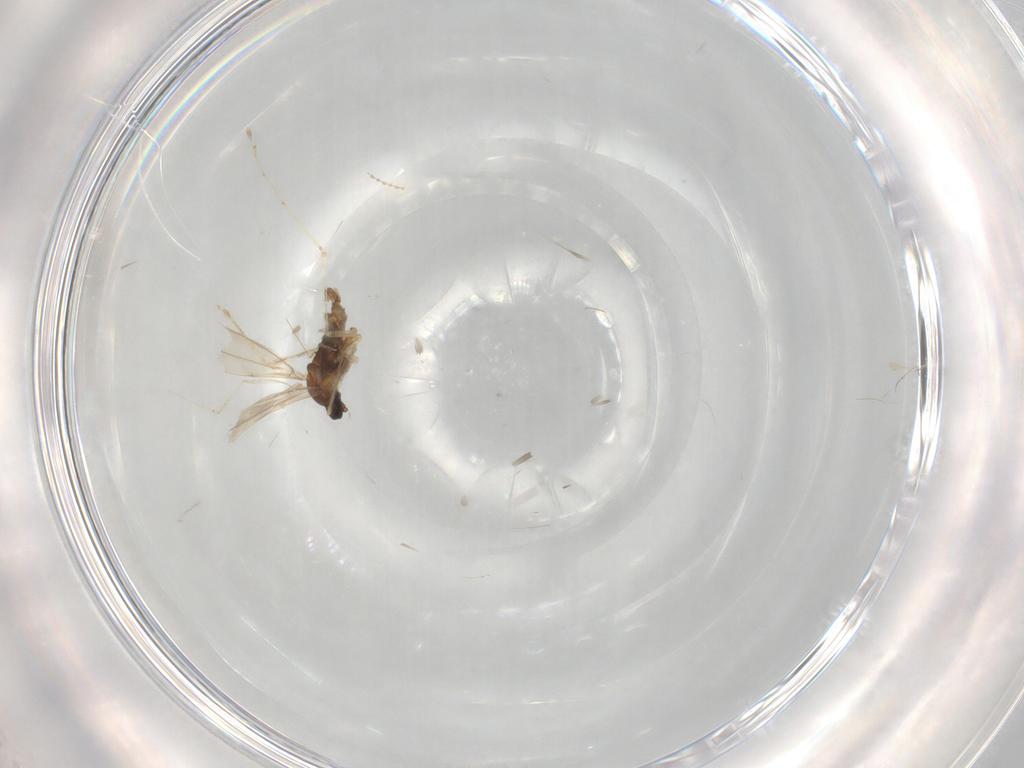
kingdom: Animalia
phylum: Arthropoda
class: Insecta
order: Diptera
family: Cecidomyiidae
